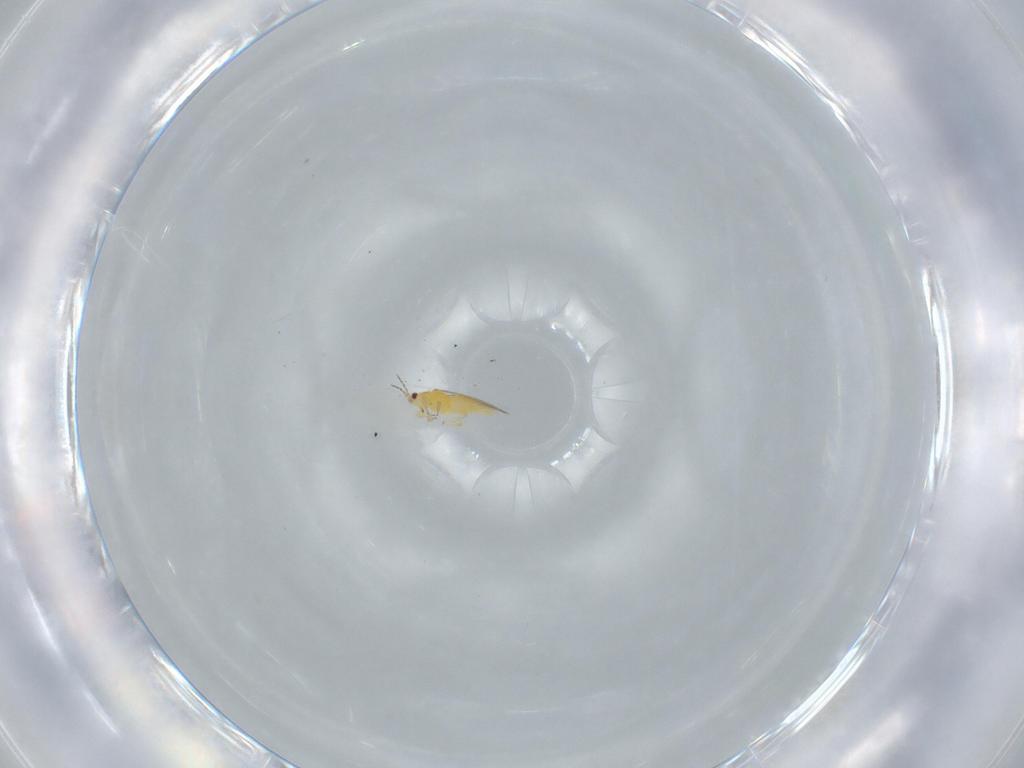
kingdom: Animalia
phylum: Arthropoda
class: Insecta
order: Thysanoptera
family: Thripidae
